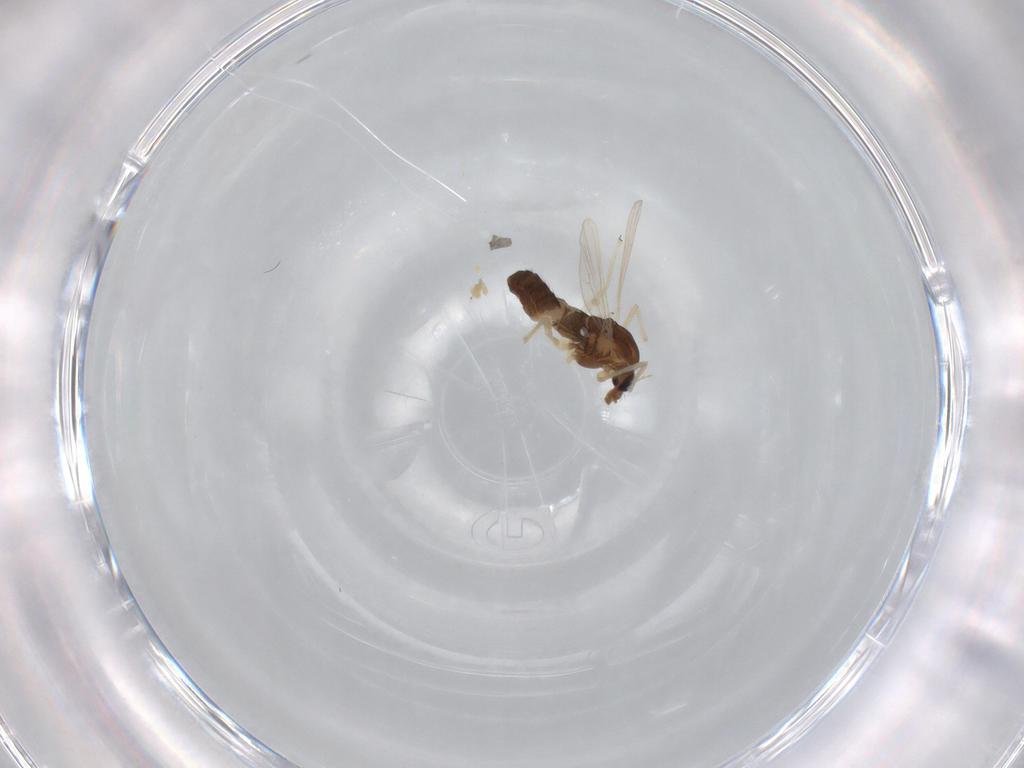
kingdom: Animalia
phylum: Arthropoda
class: Insecta
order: Diptera
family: Chironomidae
